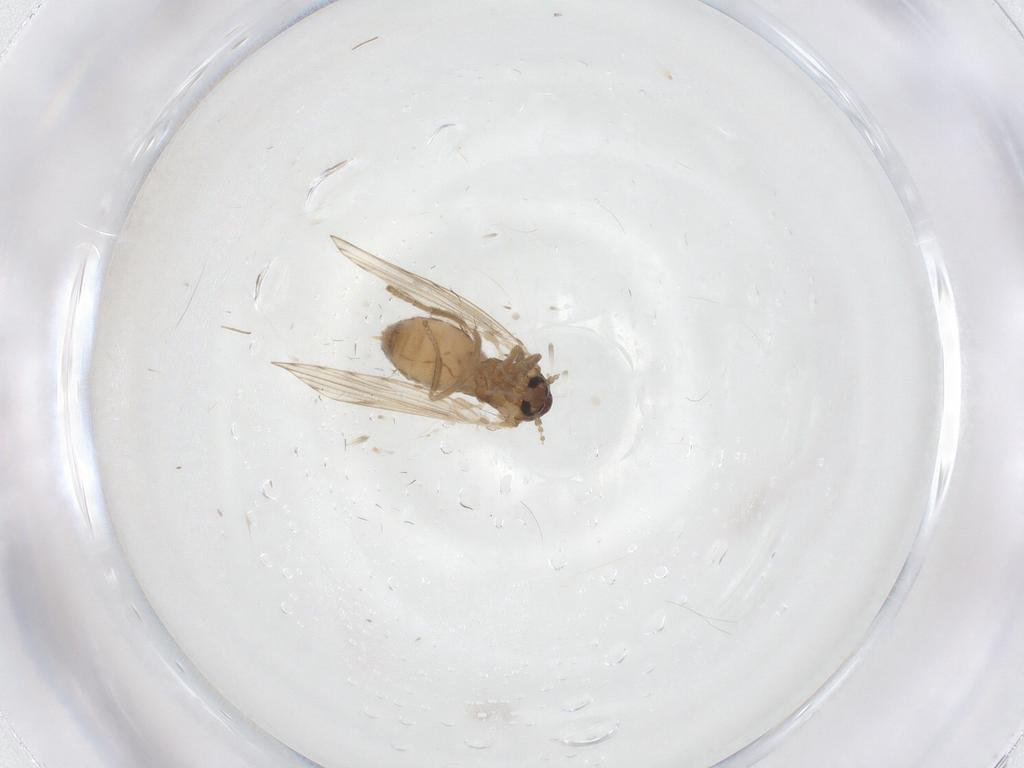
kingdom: Animalia
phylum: Arthropoda
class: Insecta
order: Diptera
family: Psychodidae
